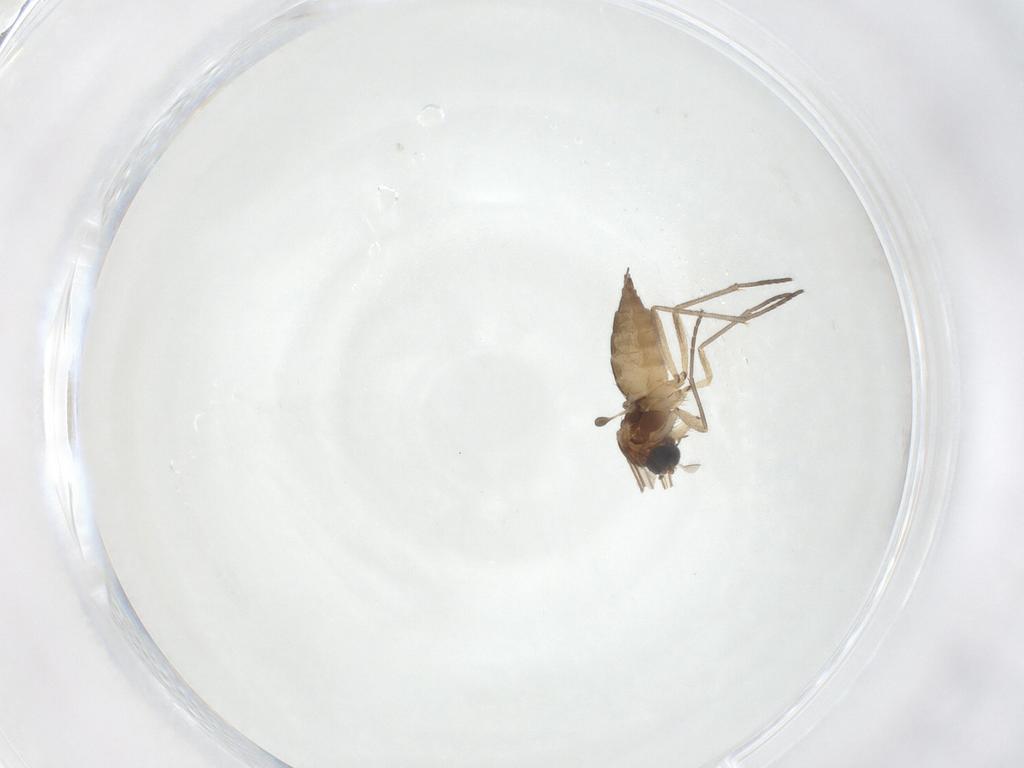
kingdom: Animalia
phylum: Arthropoda
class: Insecta
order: Diptera
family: Sciaridae
